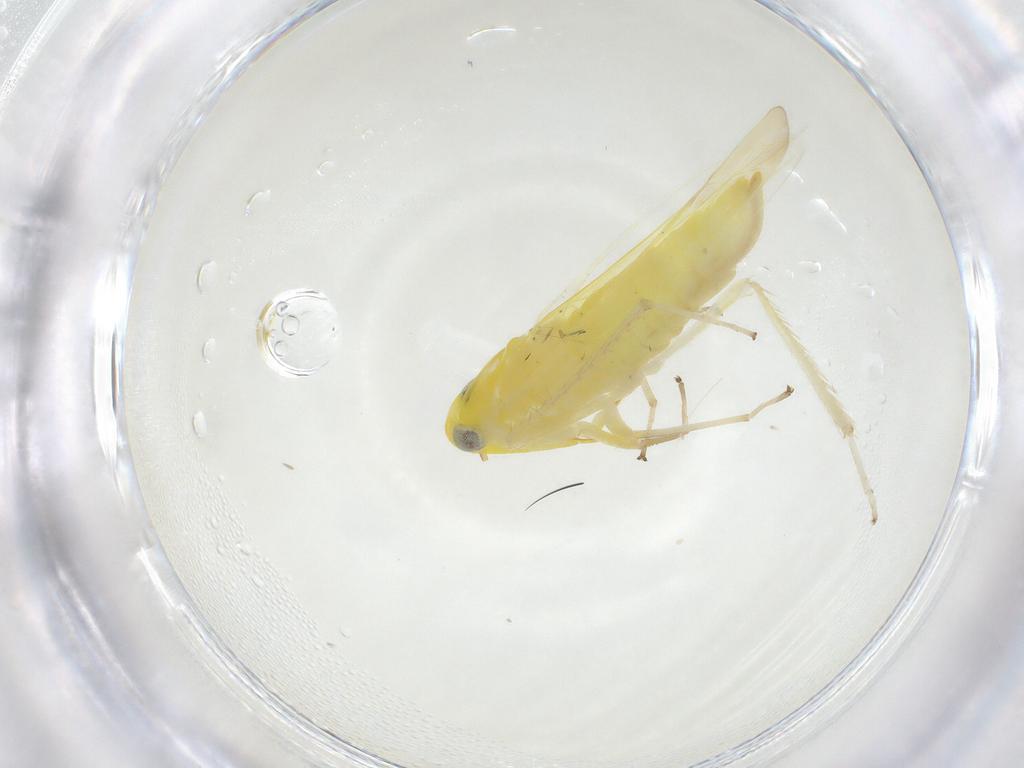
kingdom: Animalia
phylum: Arthropoda
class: Insecta
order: Hemiptera
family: Cicadellidae
